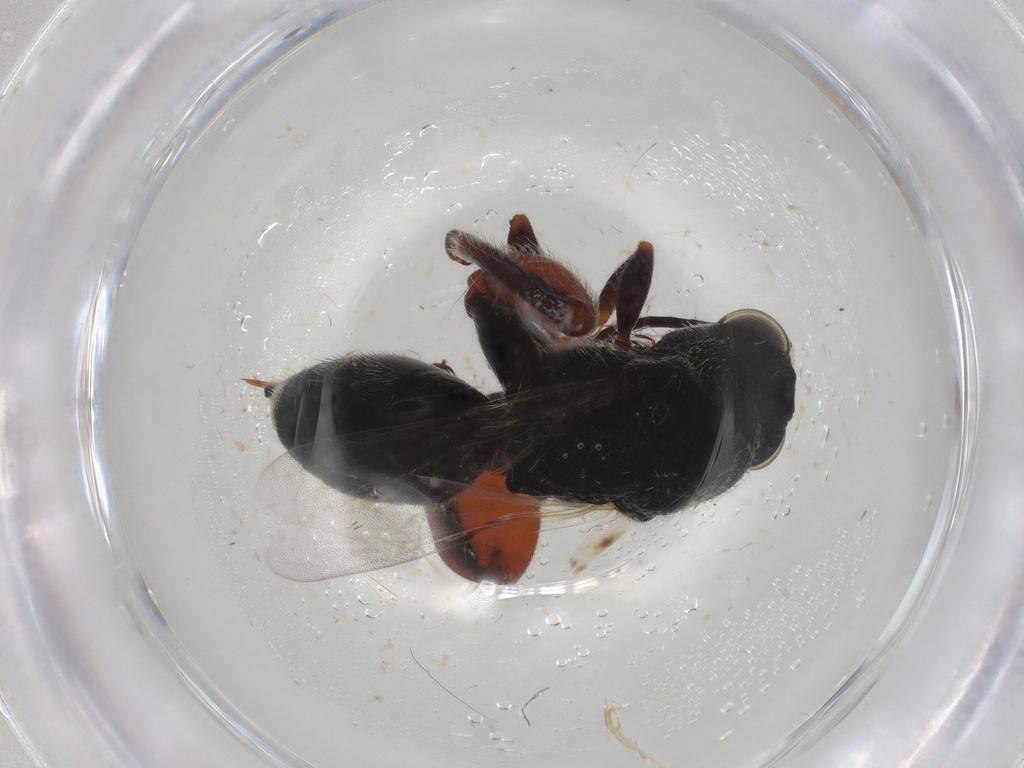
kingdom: Animalia
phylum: Arthropoda
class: Insecta
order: Hymenoptera
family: Chalcididae
